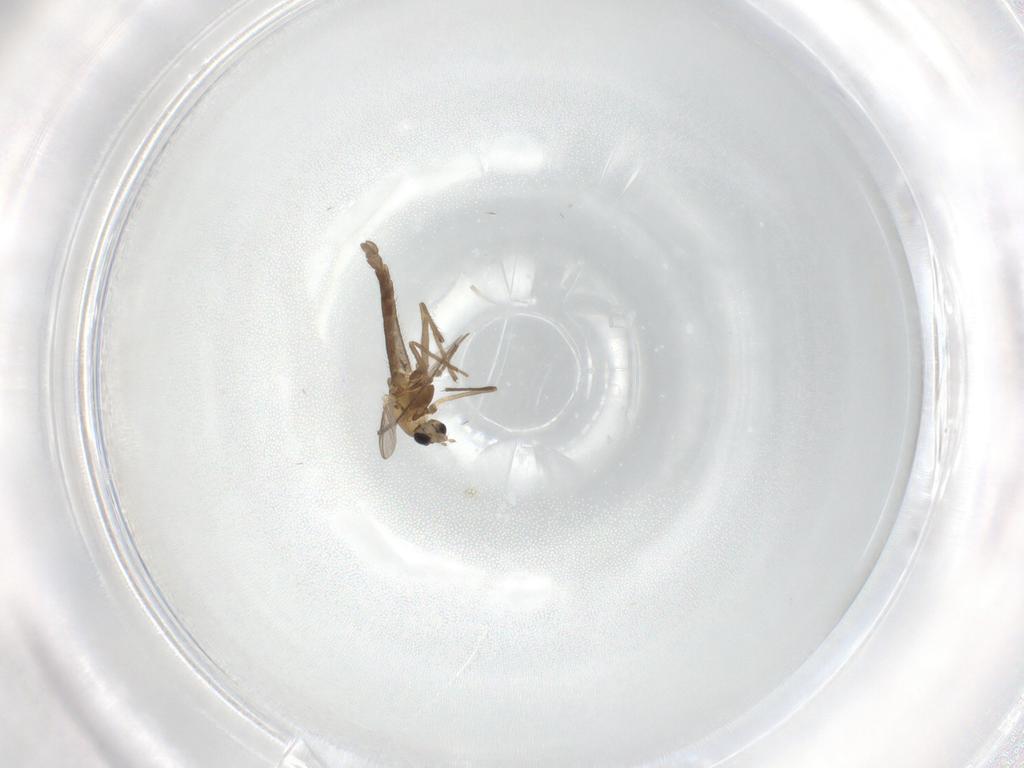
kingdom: Animalia
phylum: Arthropoda
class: Insecta
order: Diptera
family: Chironomidae
